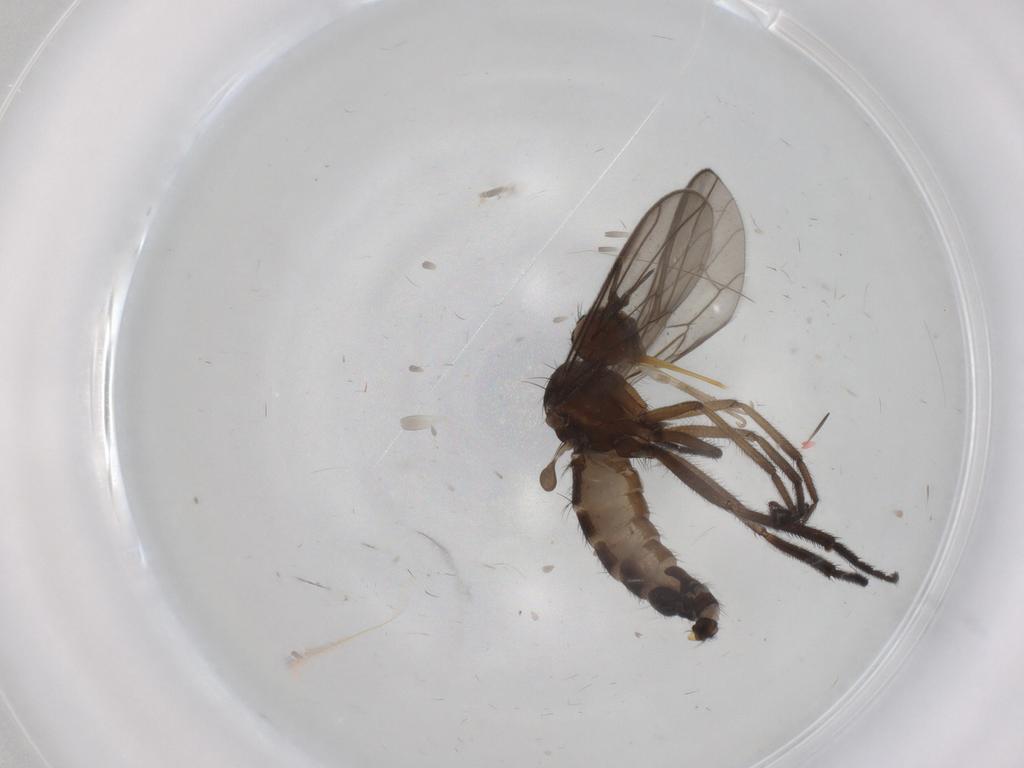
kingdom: Animalia
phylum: Arthropoda
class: Insecta
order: Diptera
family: Empididae
